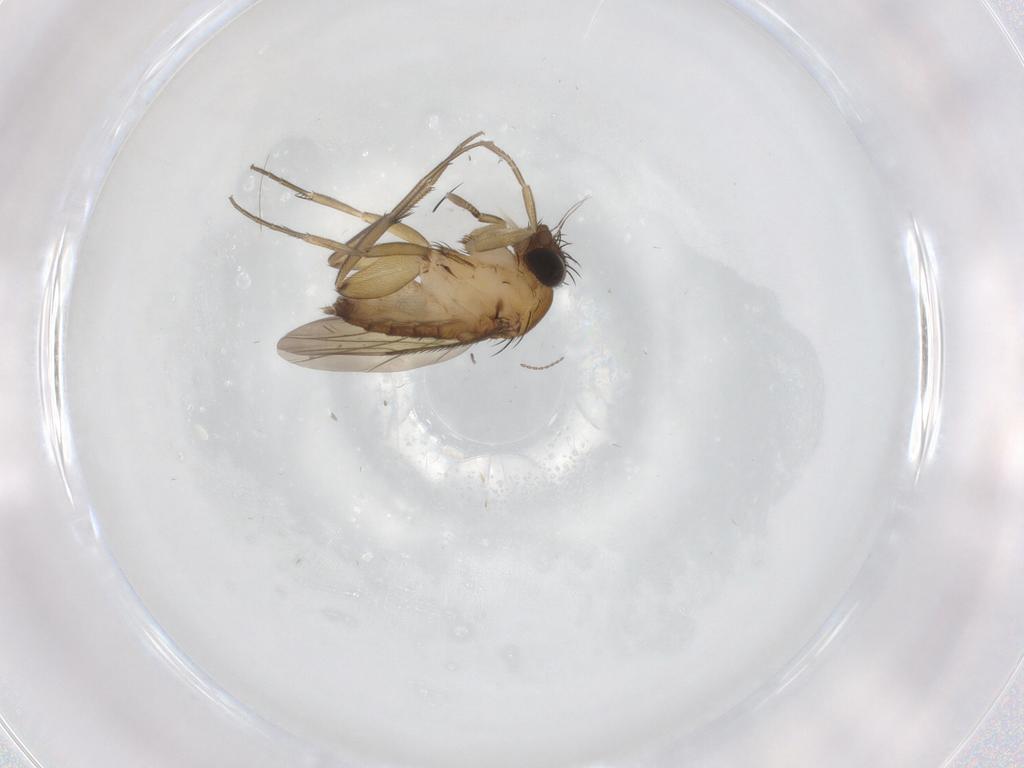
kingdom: Animalia
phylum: Arthropoda
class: Insecta
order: Diptera
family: Phoridae
